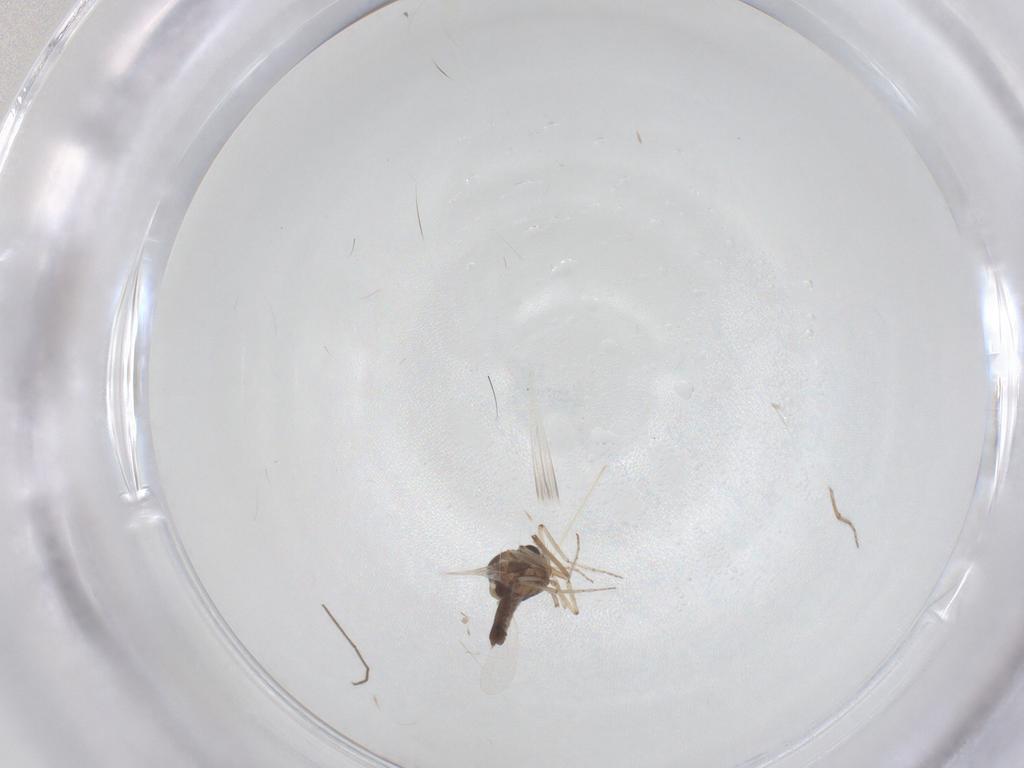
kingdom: Animalia
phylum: Arthropoda
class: Insecta
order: Diptera
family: Ceratopogonidae
